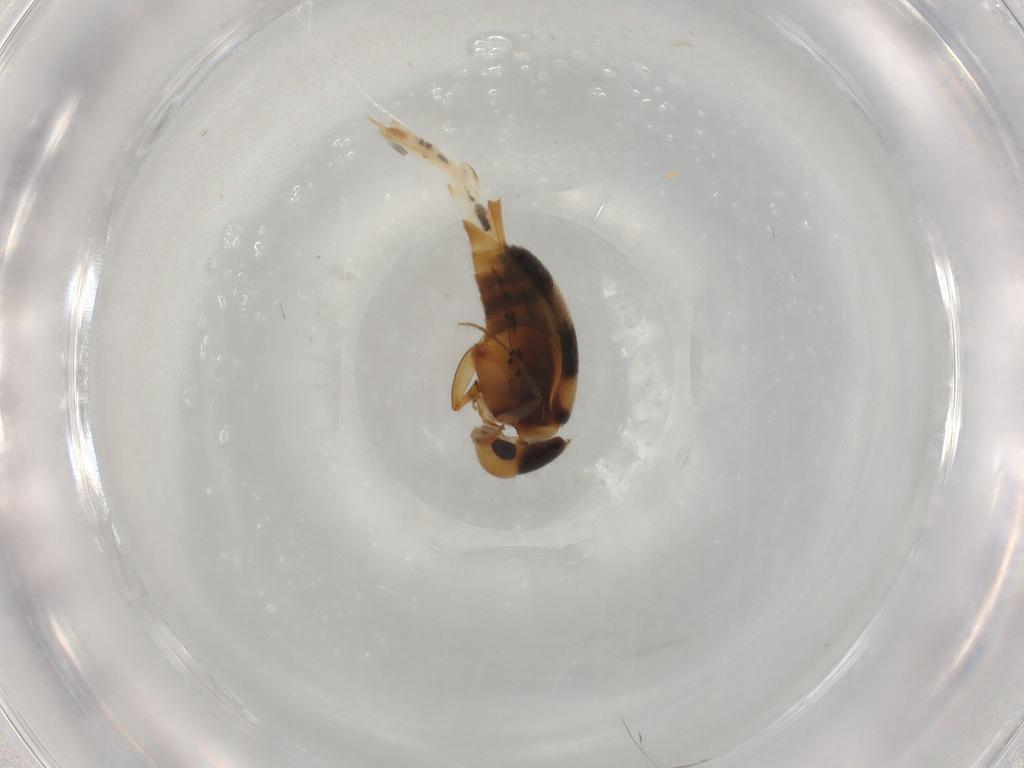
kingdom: Animalia
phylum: Arthropoda
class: Insecta
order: Coleoptera
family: Mordellidae
